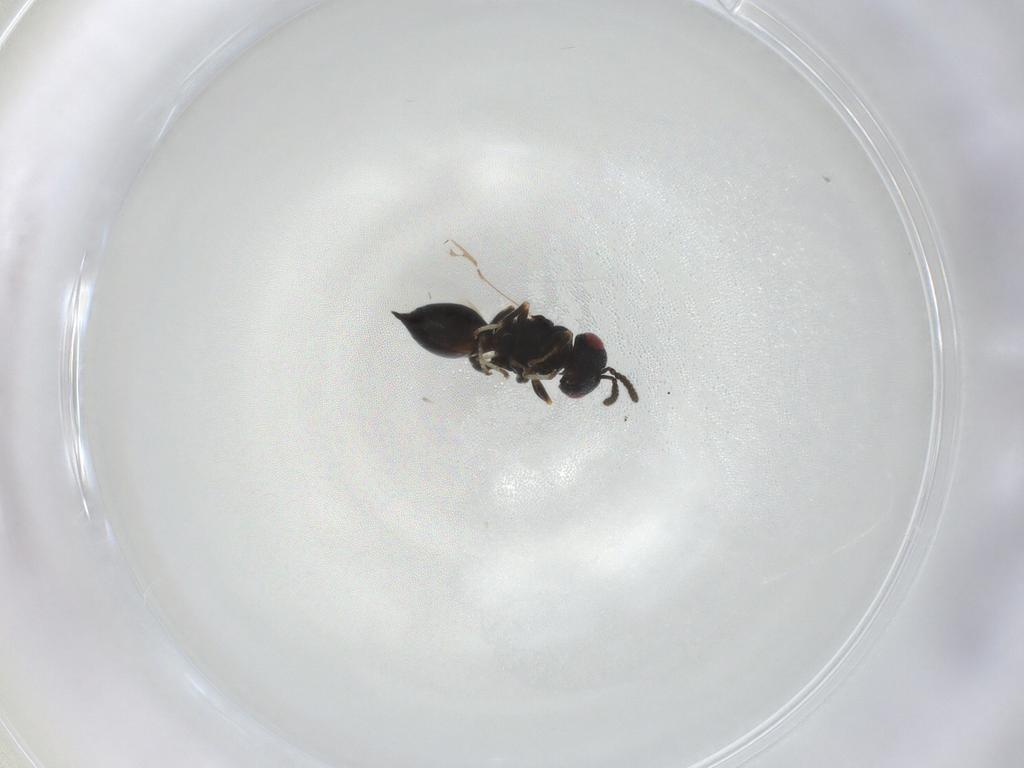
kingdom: Animalia
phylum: Arthropoda
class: Insecta
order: Hymenoptera
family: Eurytomidae
